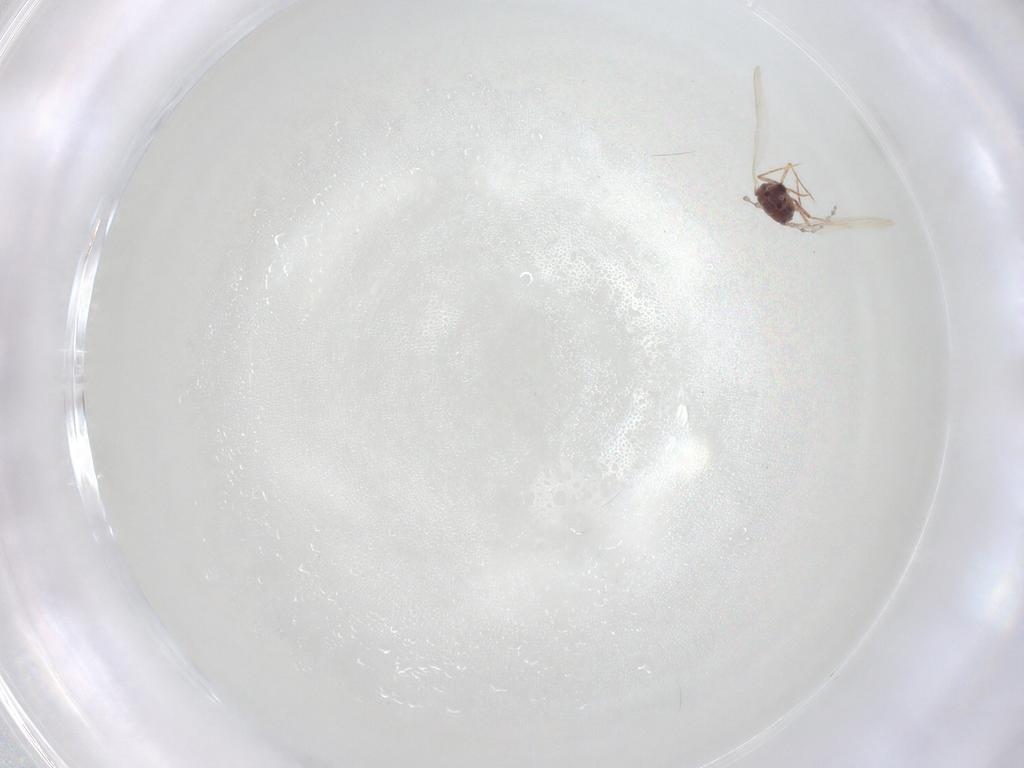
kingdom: Animalia
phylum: Arthropoda
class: Insecta
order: Diptera
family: Cecidomyiidae
